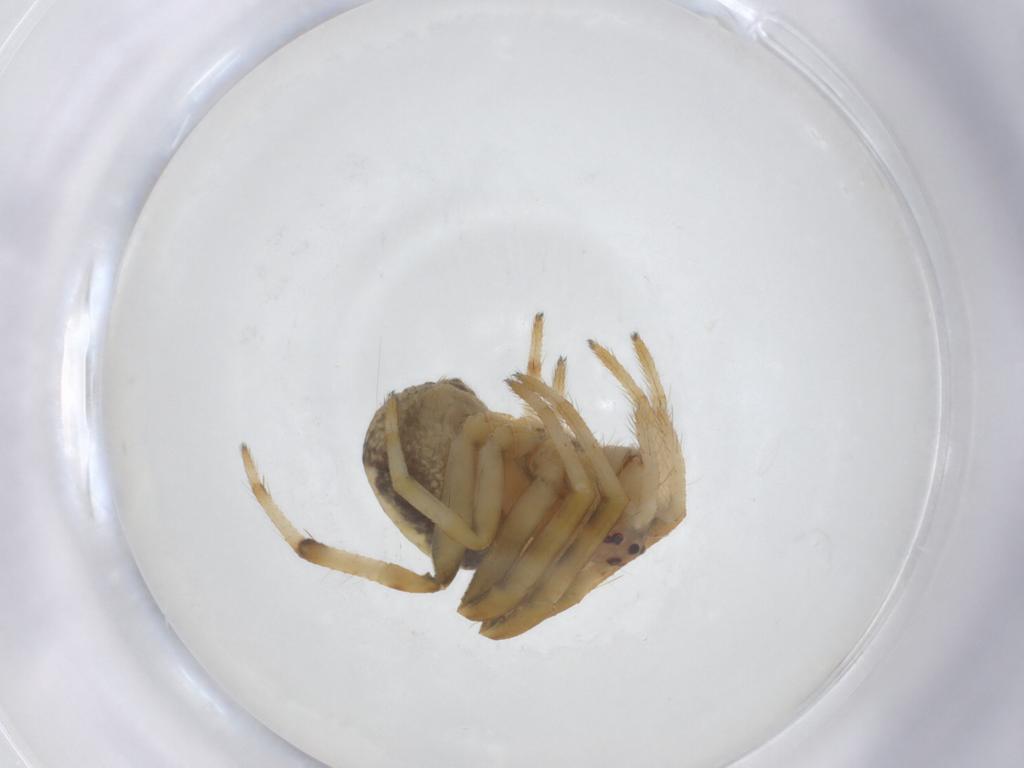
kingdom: Animalia
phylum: Arthropoda
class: Arachnida
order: Araneae
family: Araneidae
